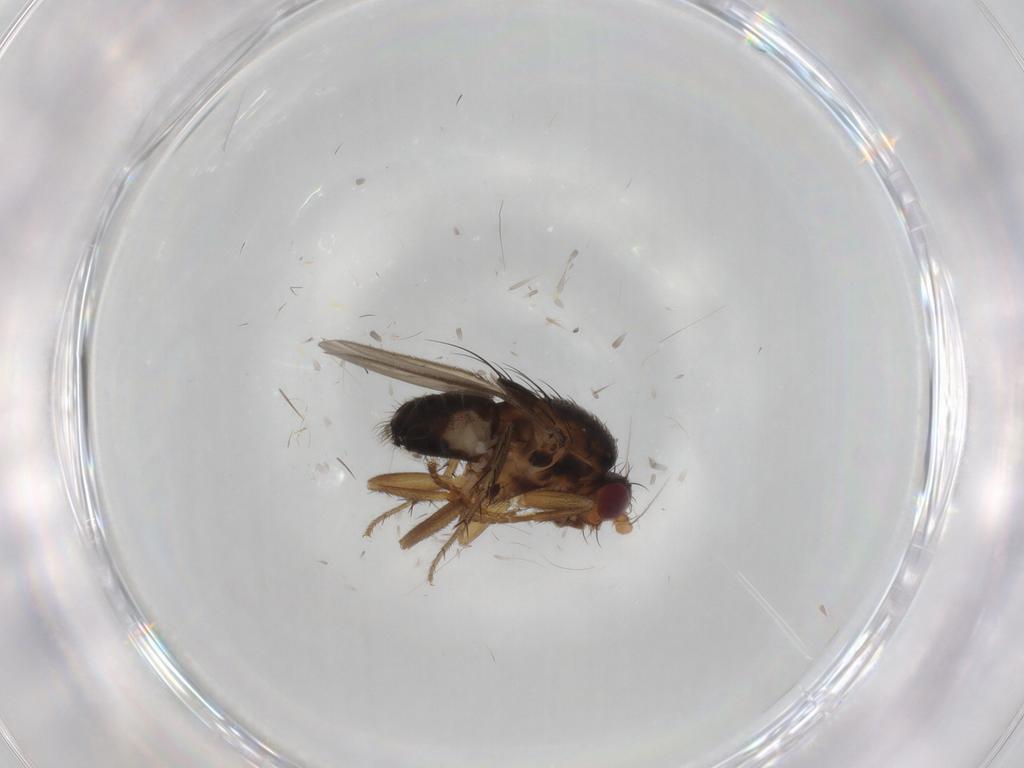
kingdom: Animalia
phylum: Arthropoda
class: Insecta
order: Diptera
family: Sphaeroceridae
